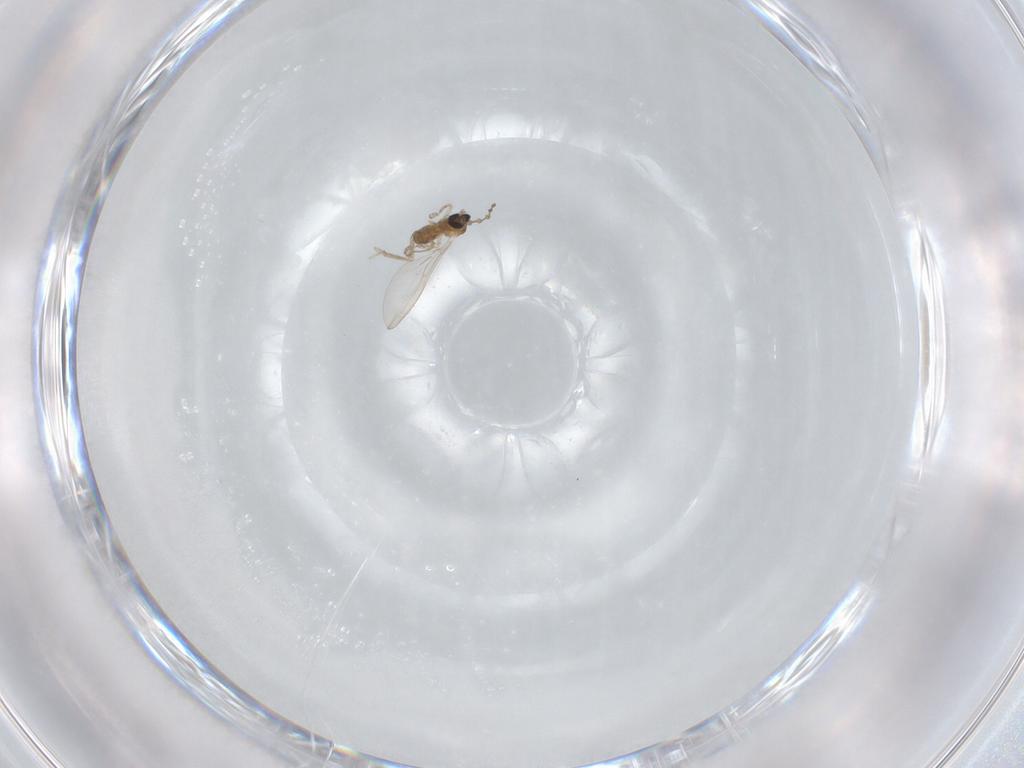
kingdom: Animalia
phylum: Arthropoda
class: Insecta
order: Diptera
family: Cecidomyiidae
